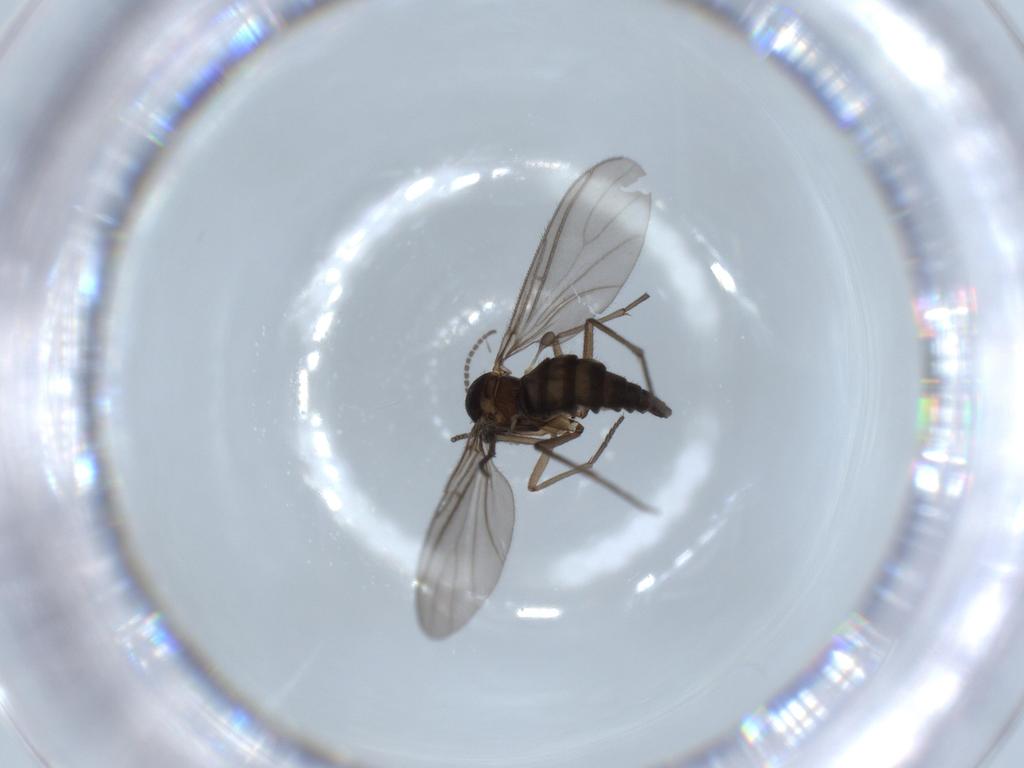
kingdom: Animalia
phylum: Arthropoda
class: Insecta
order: Diptera
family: Sciaridae
